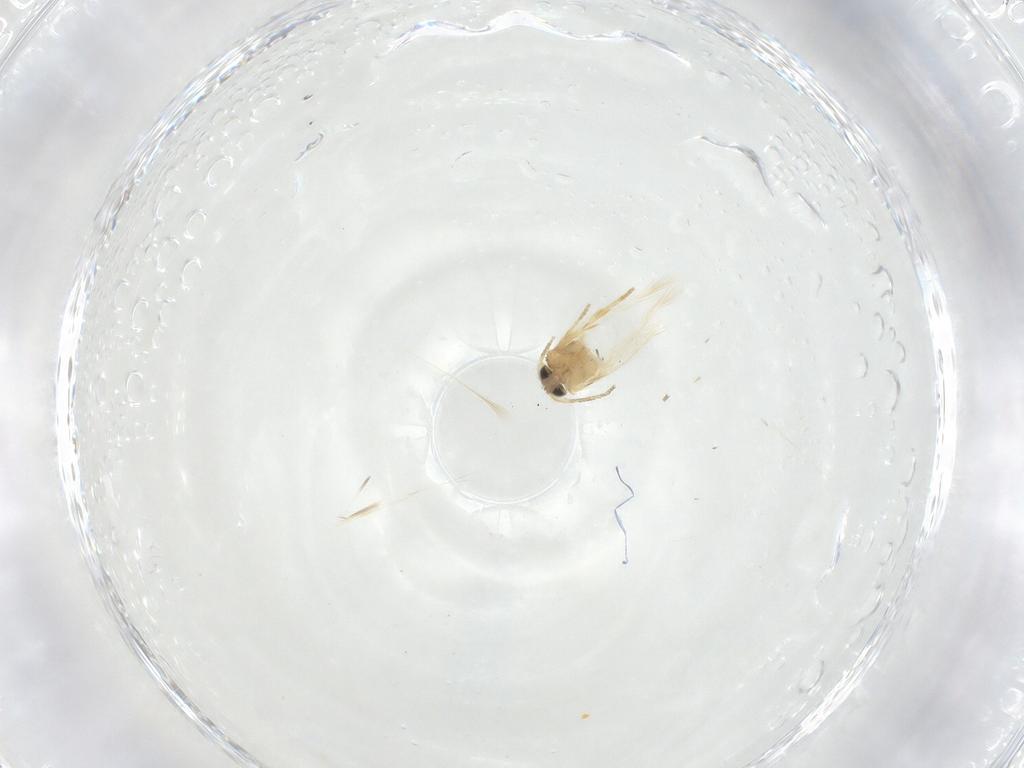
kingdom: Animalia
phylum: Arthropoda
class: Insecta
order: Lepidoptera
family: Crambidae
